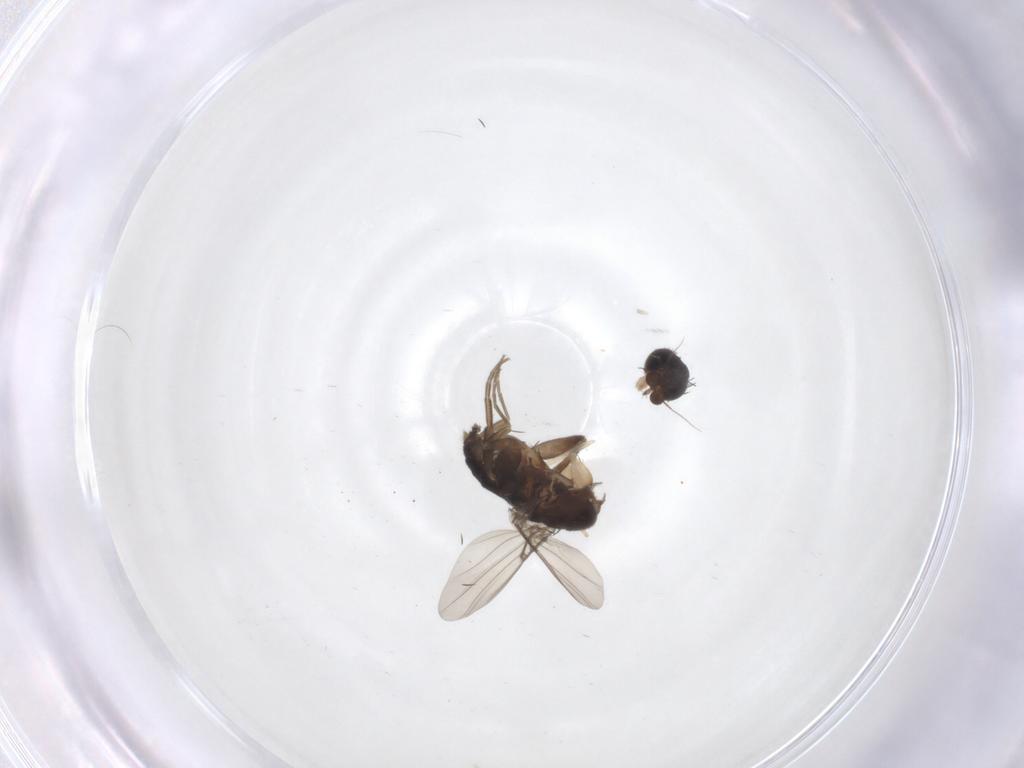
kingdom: Animalia
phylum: Arthropoda
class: Insecta
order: Diptera
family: Phoridae
